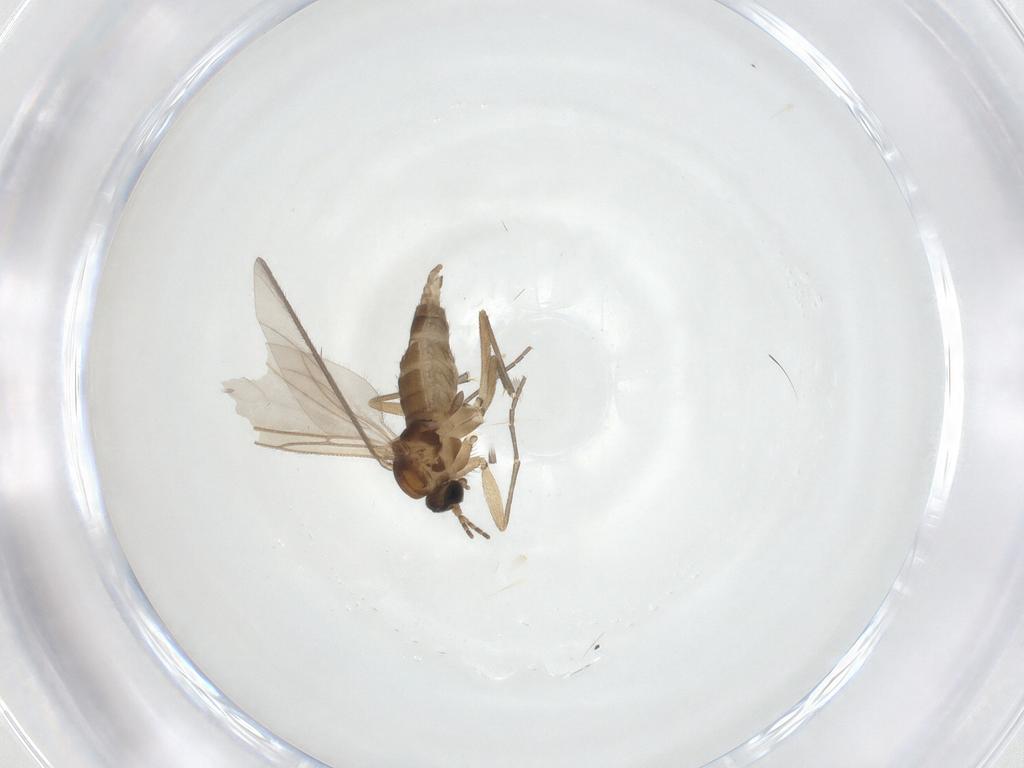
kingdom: Animalia
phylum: Arthropoda
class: Insecta
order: Diptera
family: Sciaridae
